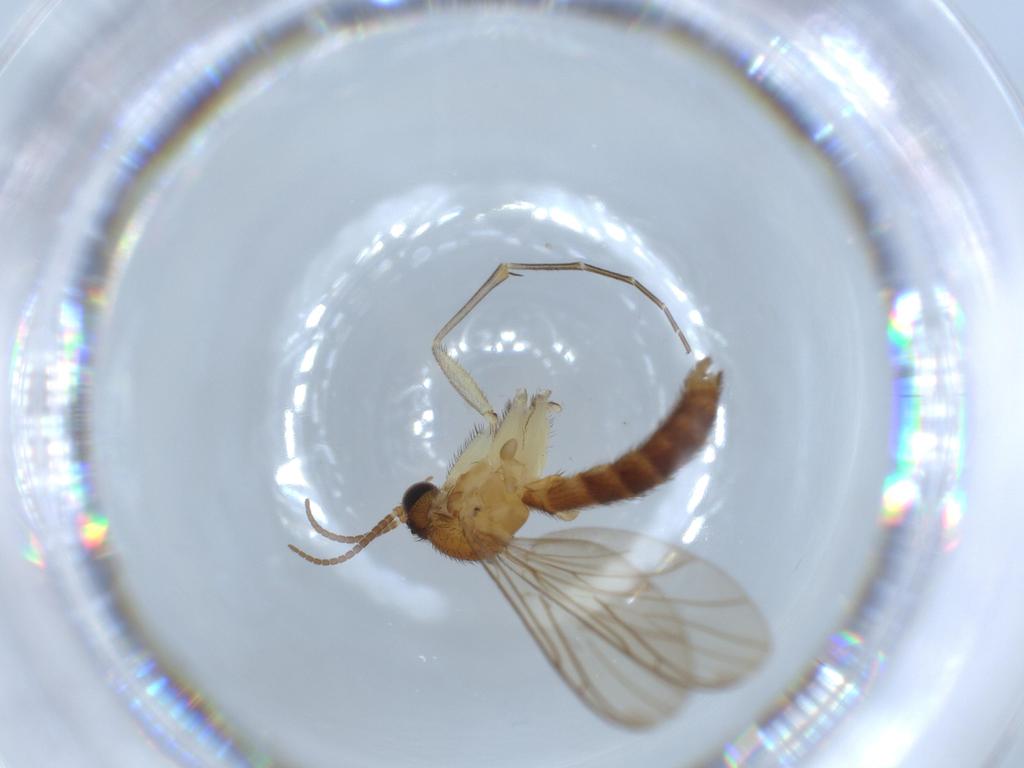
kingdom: Animalia
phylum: Arthropoda
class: Insecta
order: Diptera
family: Keroplatidae
